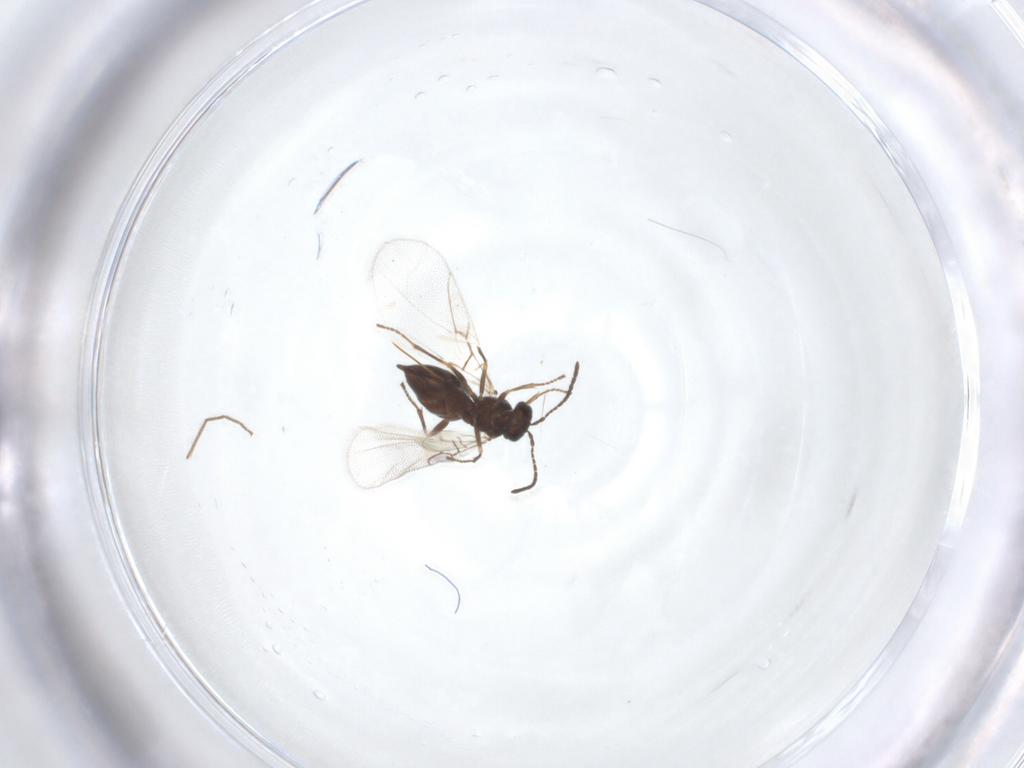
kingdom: Animalia
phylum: Arthropoda
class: Insecta
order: Hymenoptera
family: Cynipidae
